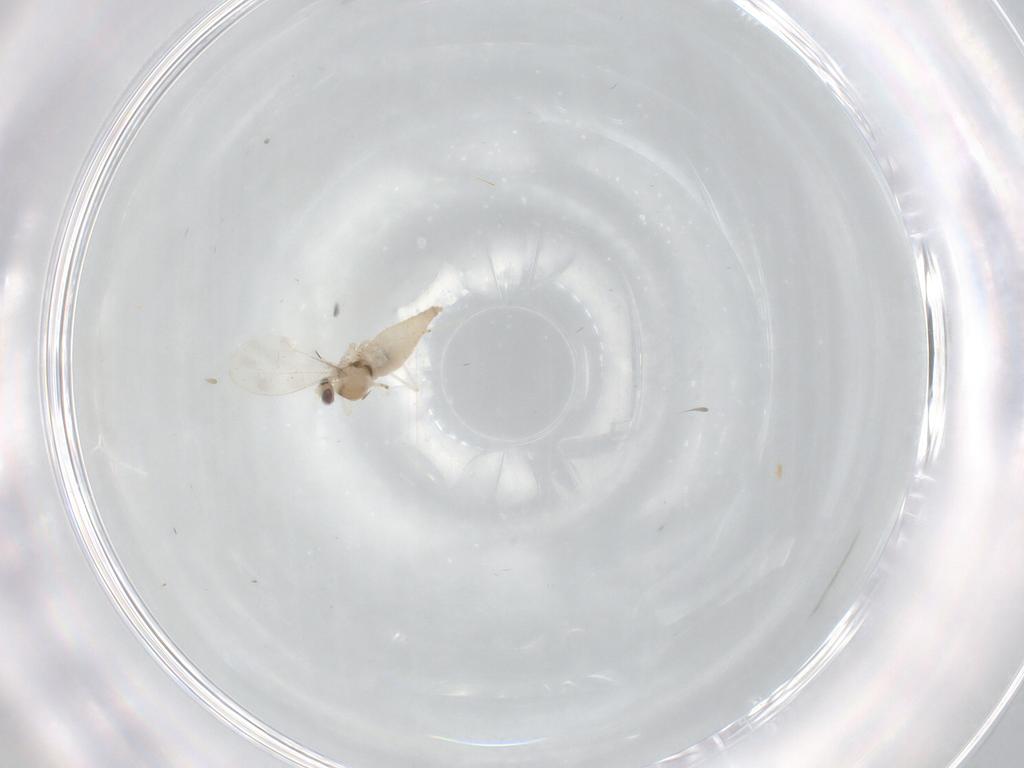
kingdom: Animalia
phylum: Arthropoda
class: Insecta
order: Diptera
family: Cecidomyiidae
